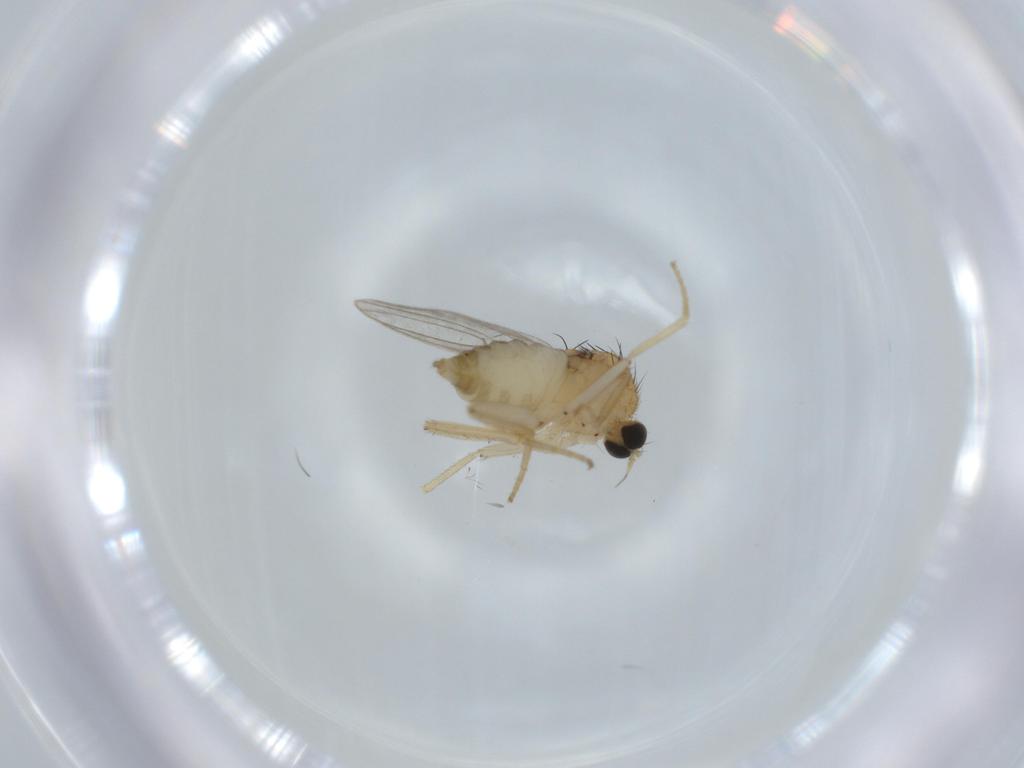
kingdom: Animalia
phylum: Arthropoda
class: Insecta
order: Diptera
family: Hybotidae
